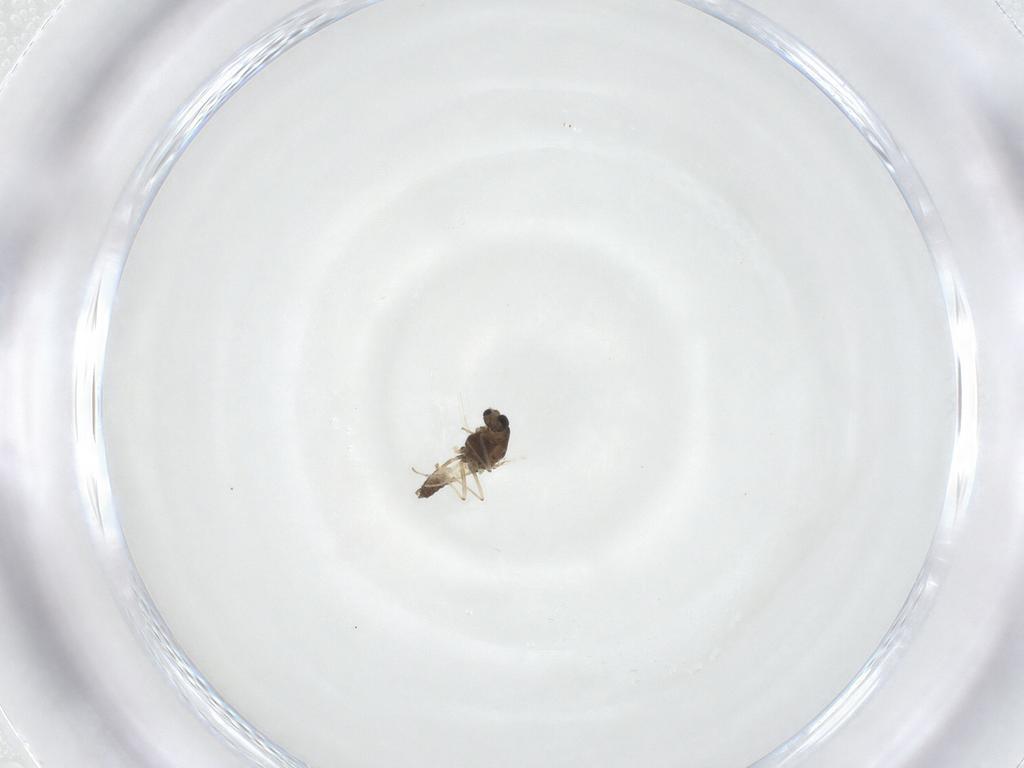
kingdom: Animalia
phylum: Arthropoda
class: Insecta
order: Diptera
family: Chironomidae
